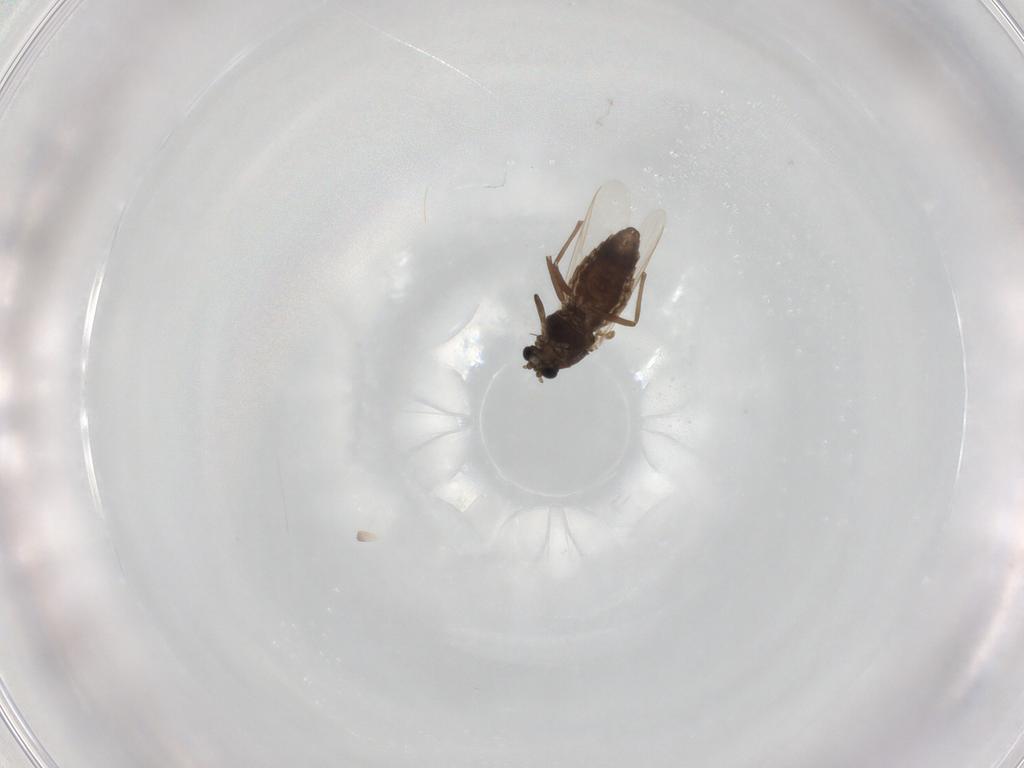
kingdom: Animalia
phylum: Arthropoda
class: Insecta
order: Diptera
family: Chironomidae
